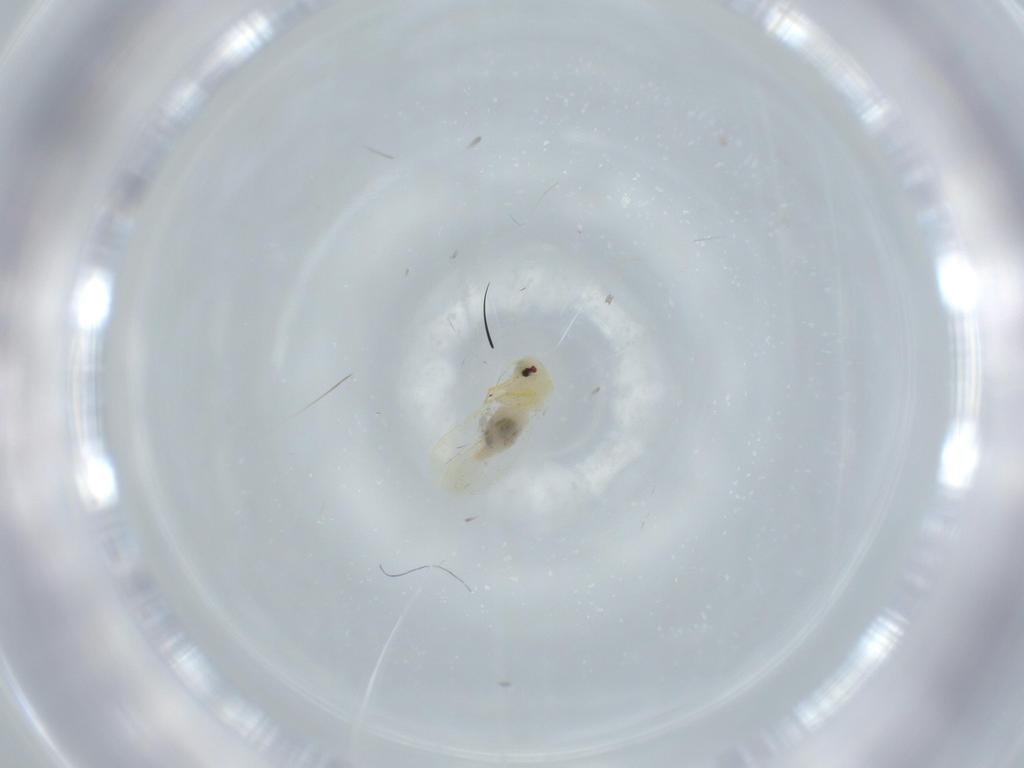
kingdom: Animalia
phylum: Arthropoda
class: Insecta
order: Hemiptera
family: Aleyrodidae
